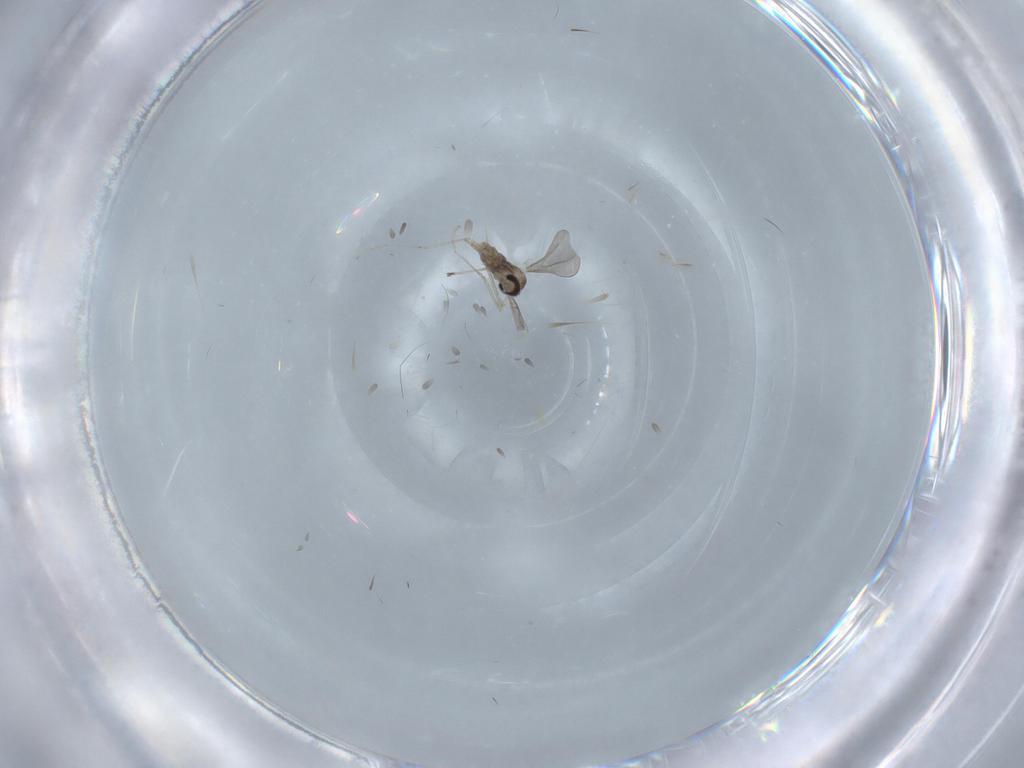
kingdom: Animalia
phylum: Arthropoda
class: Insecta
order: Diptera
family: Cecidomyiidae
